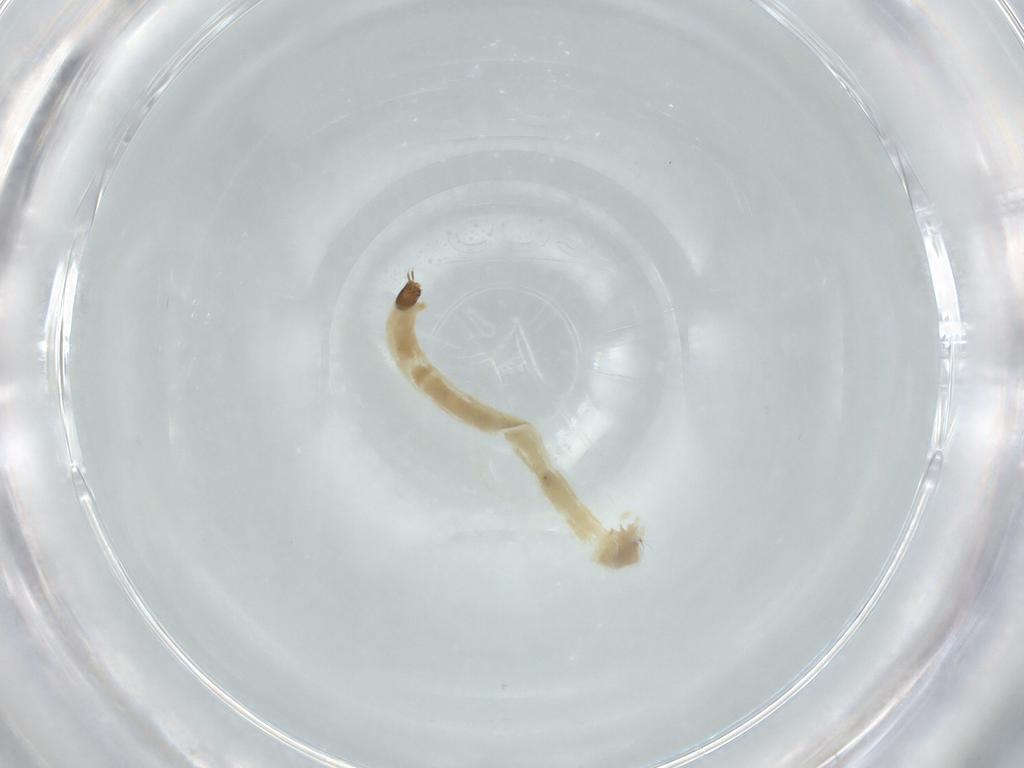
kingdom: Animalia
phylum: Arthropoda
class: Insecta
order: Diptera
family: Chironomidae
